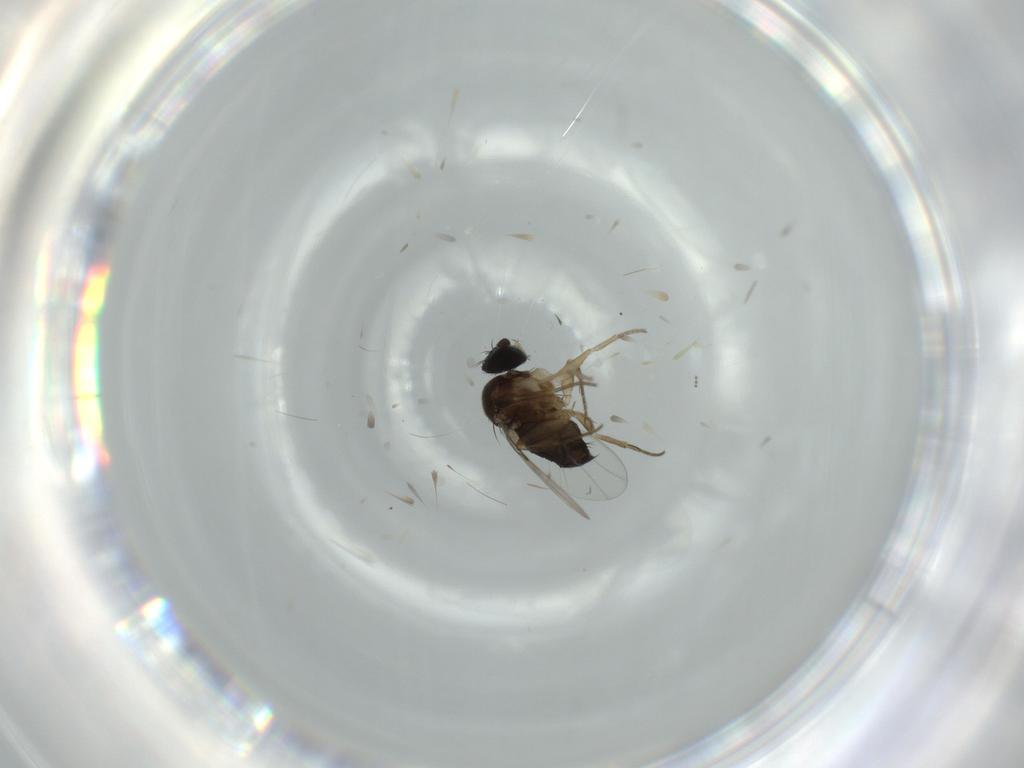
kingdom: Animalia
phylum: Arthropoda
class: Insecta
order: Diptera
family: Phoridae
